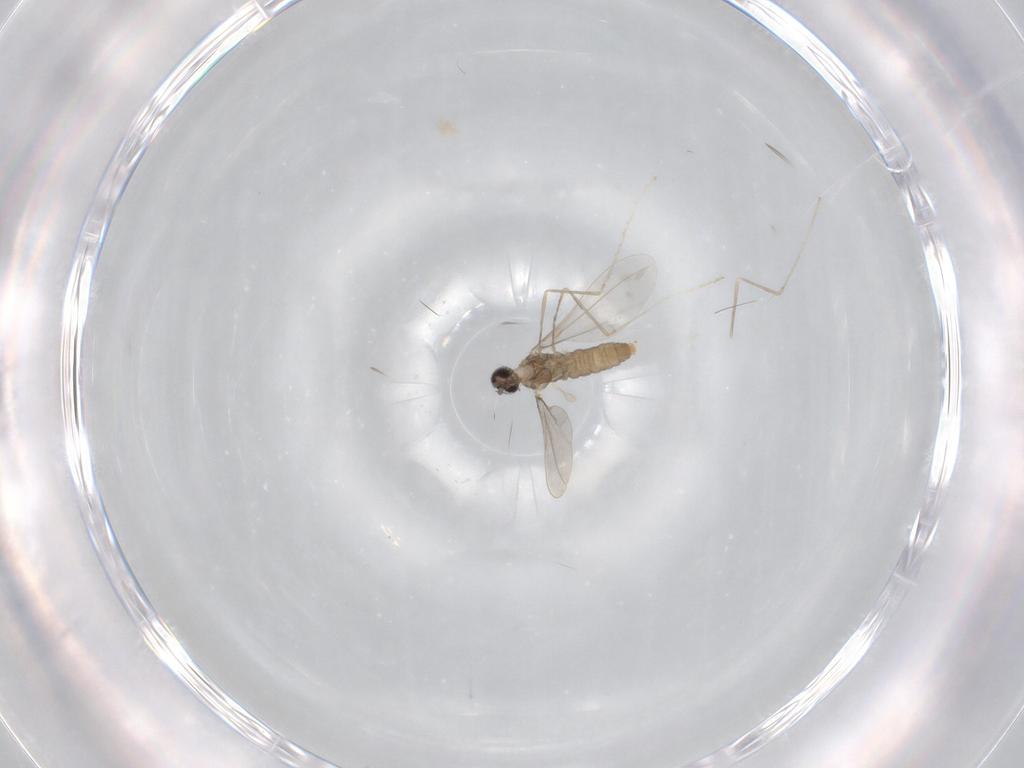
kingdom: Animalia
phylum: Arthropoda
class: Insecta
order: Diptera
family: Cecidomyiidae
